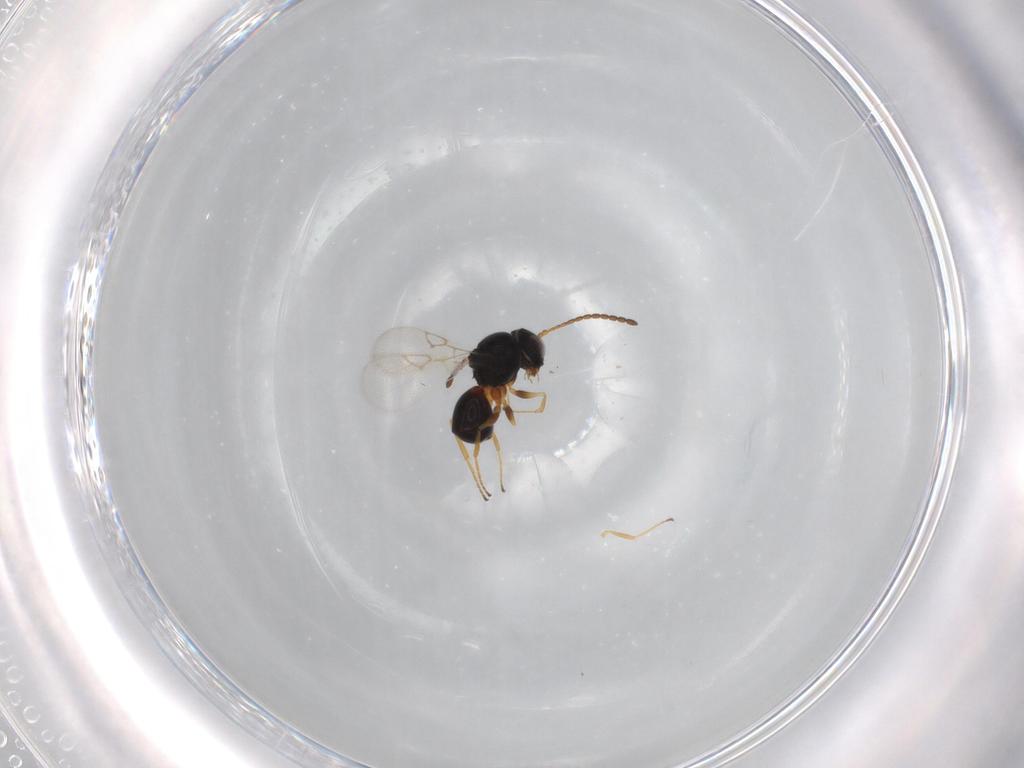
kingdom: Animalia
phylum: Arthropoda
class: Insecta
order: Hymenoptera
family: Figitidae
